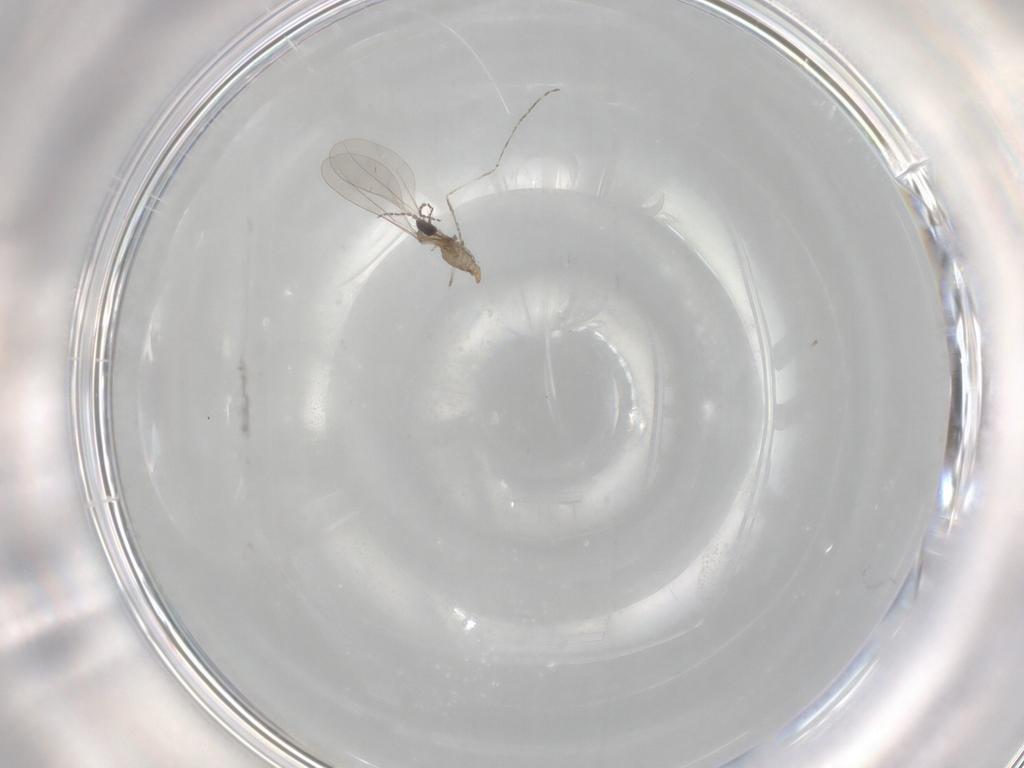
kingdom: Animalia
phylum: Arthropoda
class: Insecta
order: Diptera
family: Cecidomyiidae
